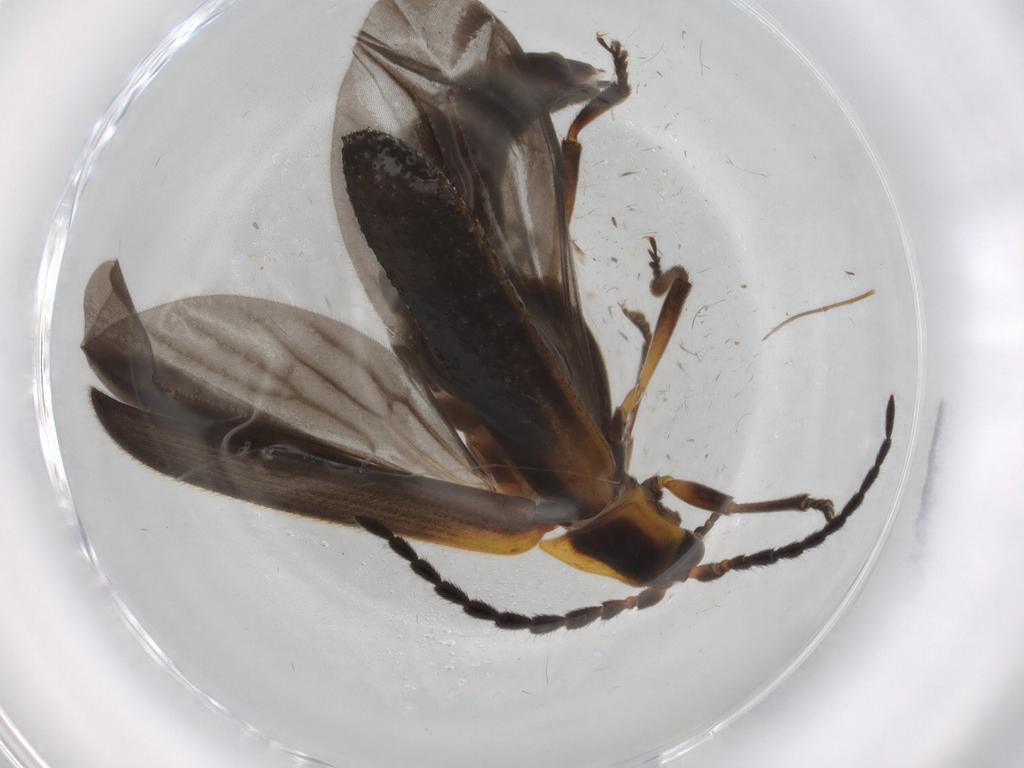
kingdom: Animalia
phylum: Arthropoda
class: Insecta
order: Coleoptera
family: Lycidae
